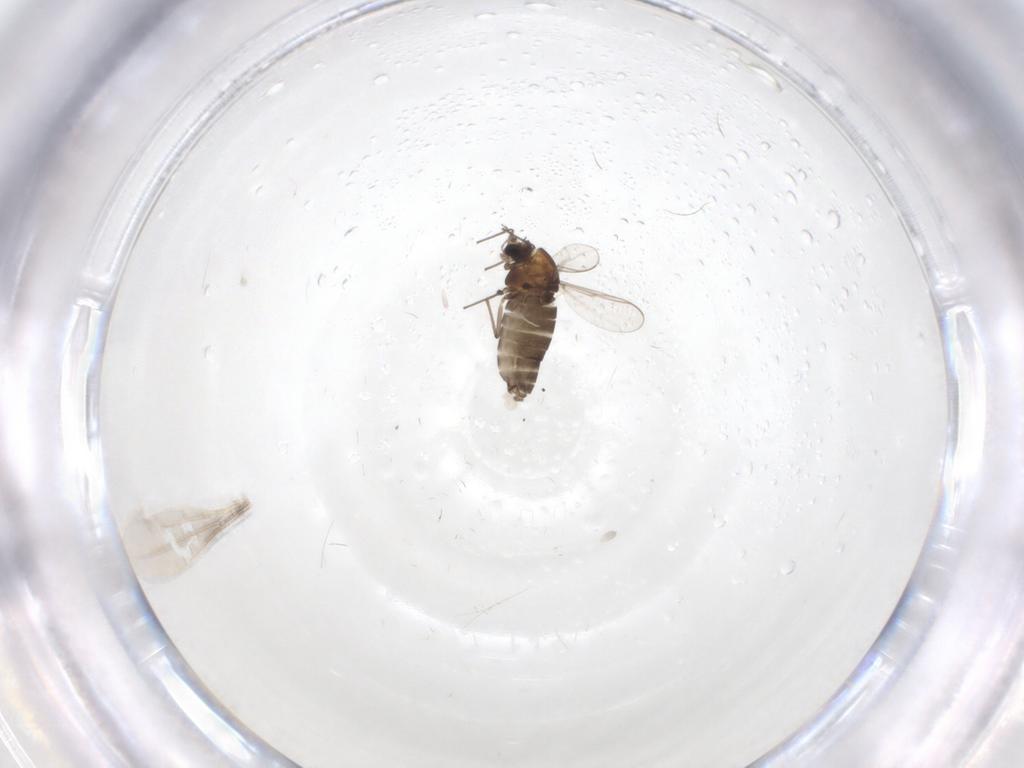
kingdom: Animalia
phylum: Arthropoda
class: Insecta
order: Diptera
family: Chironomidae
